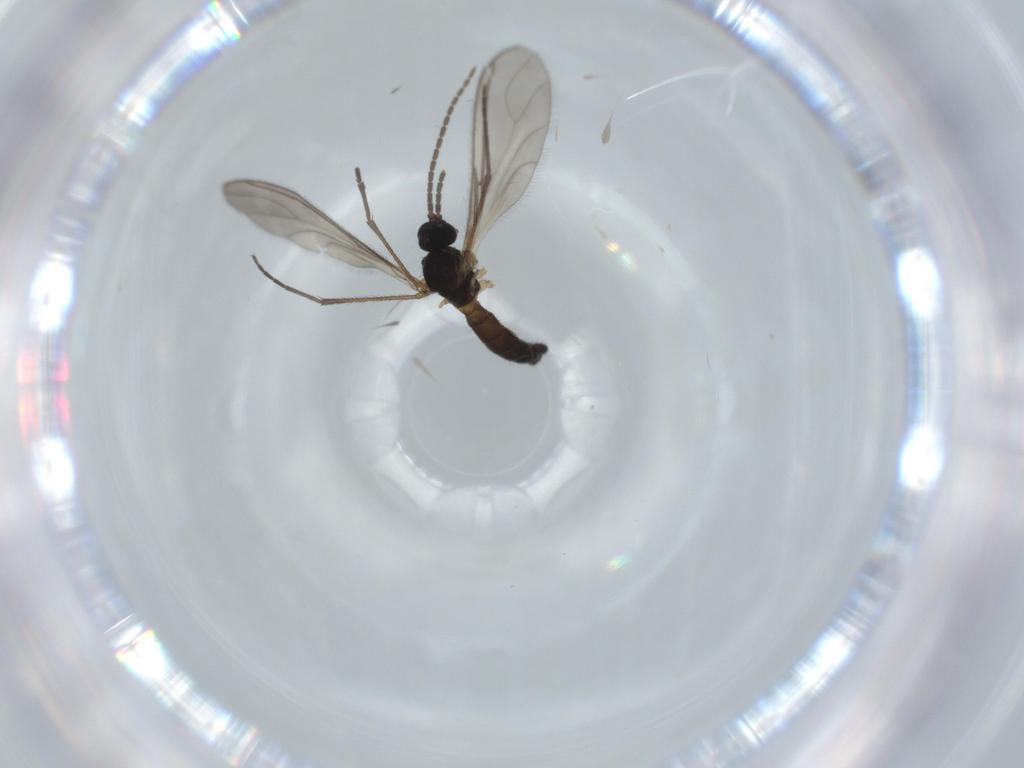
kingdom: Animalia
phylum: Arthropoda
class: Insecta
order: Diptera
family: Sciaridae
